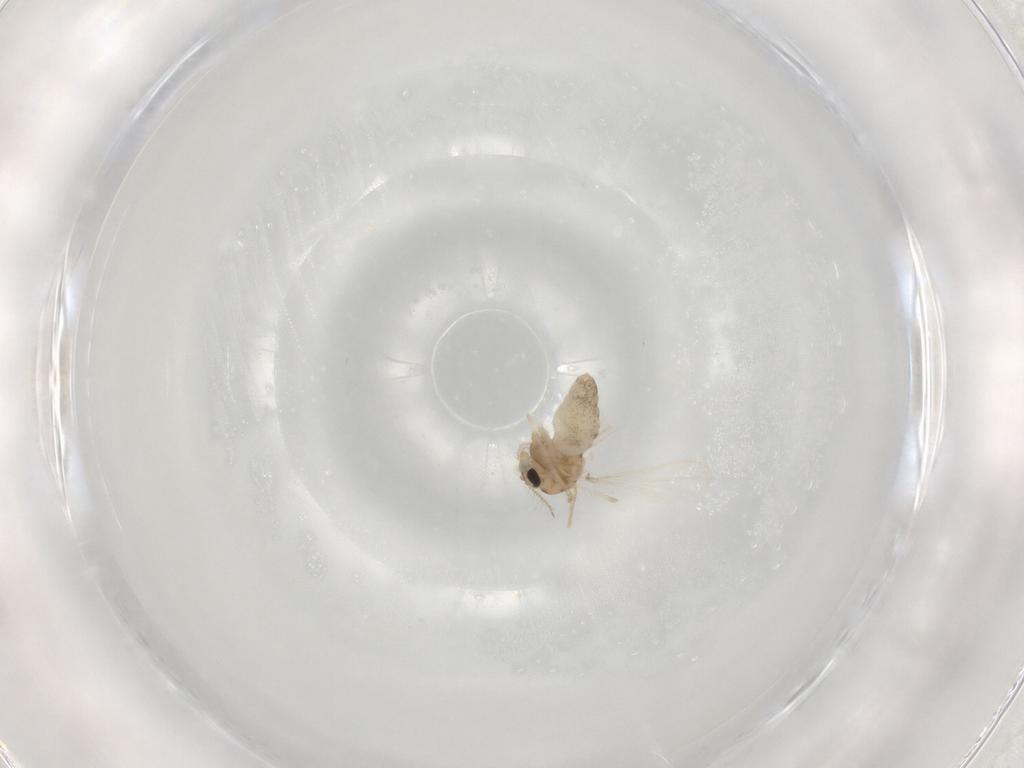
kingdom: Animalia
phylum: Arthropoda
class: Insecta
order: Diptera
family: Chironomidae
